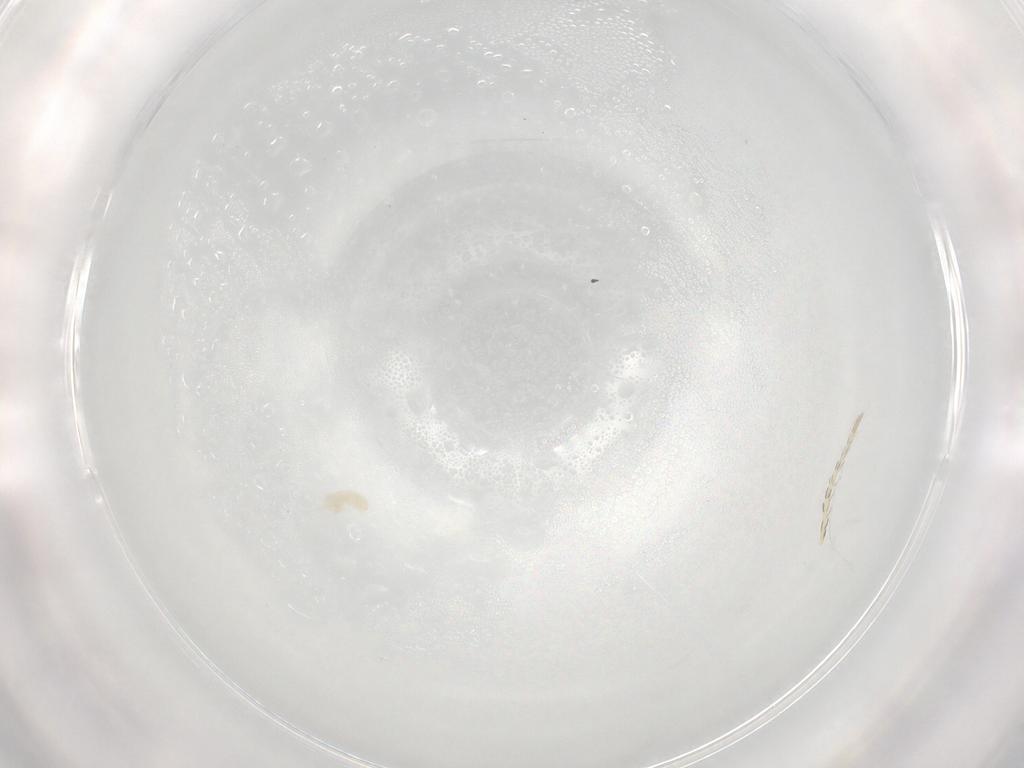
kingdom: Animalia
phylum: Arthropoda
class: Arachnida
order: Trombidiformes
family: Eupodidae
